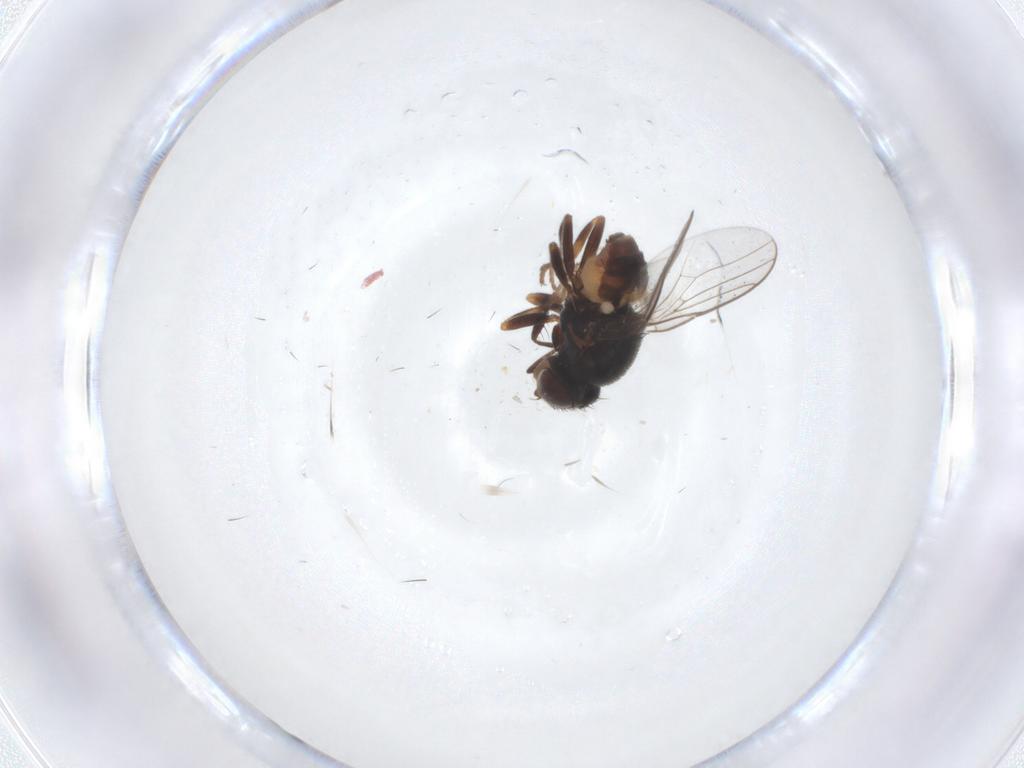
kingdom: Animalia
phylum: Arthropoda
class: Insecta
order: Diptera
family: Chloropidae
